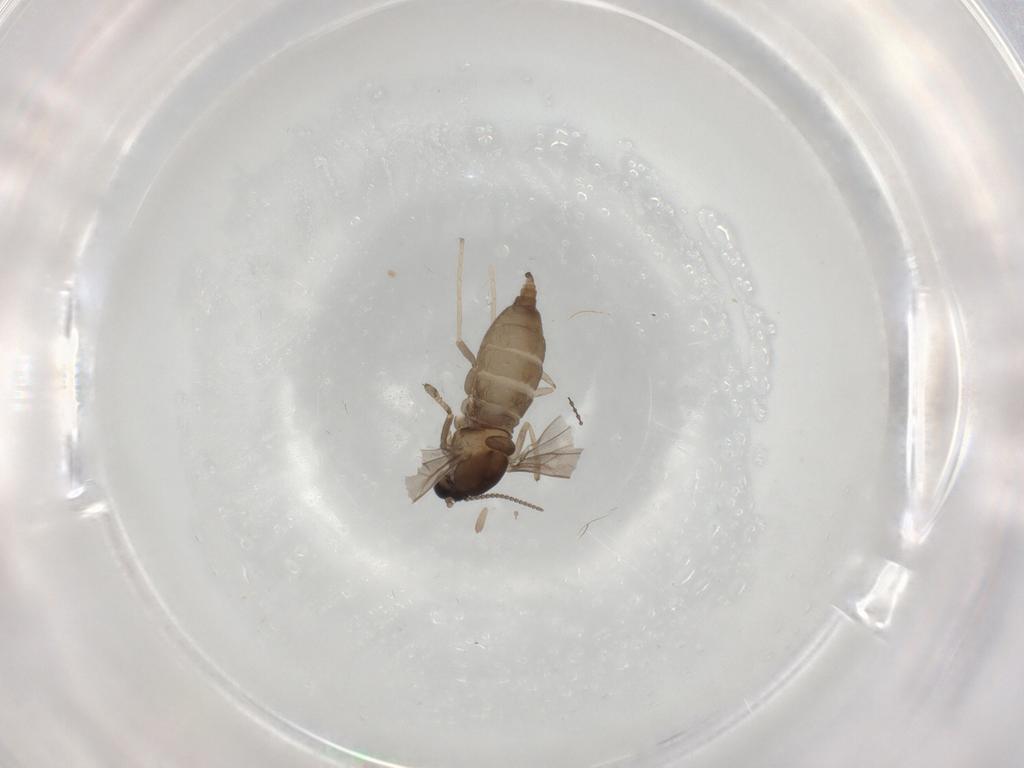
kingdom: Animalia
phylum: Arthropoda
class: Insecta
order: Diptera
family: Cecidomyiidae
